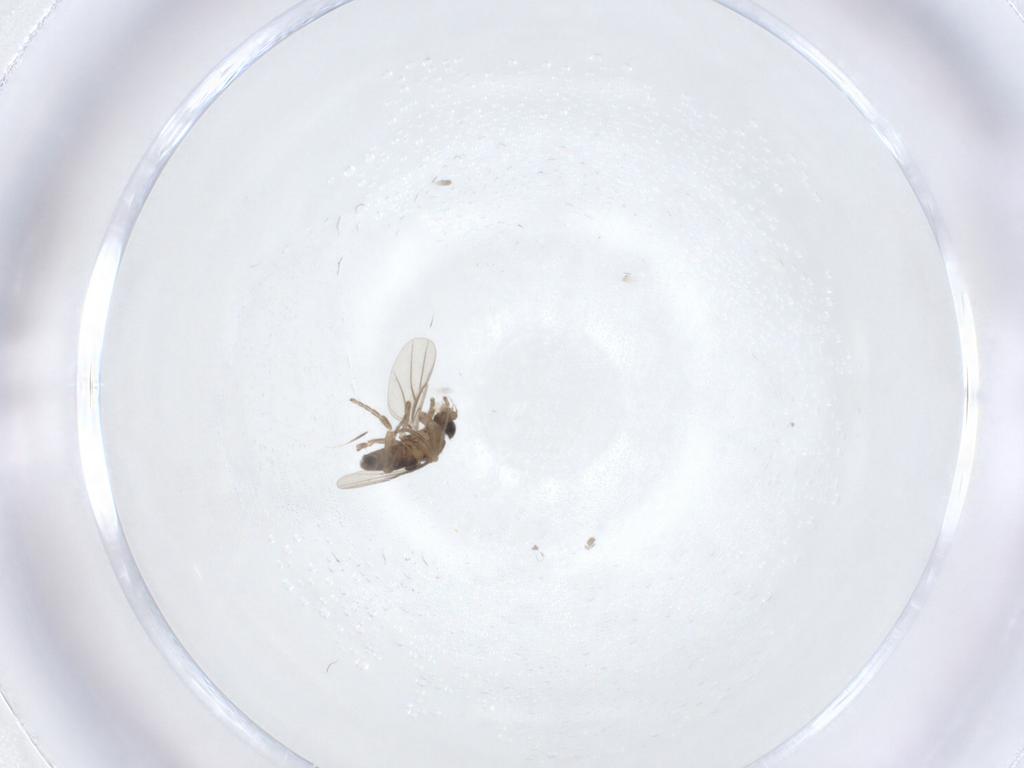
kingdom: Animalia
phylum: Arthropoda
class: Insecta
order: Diptera
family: Phoridae
